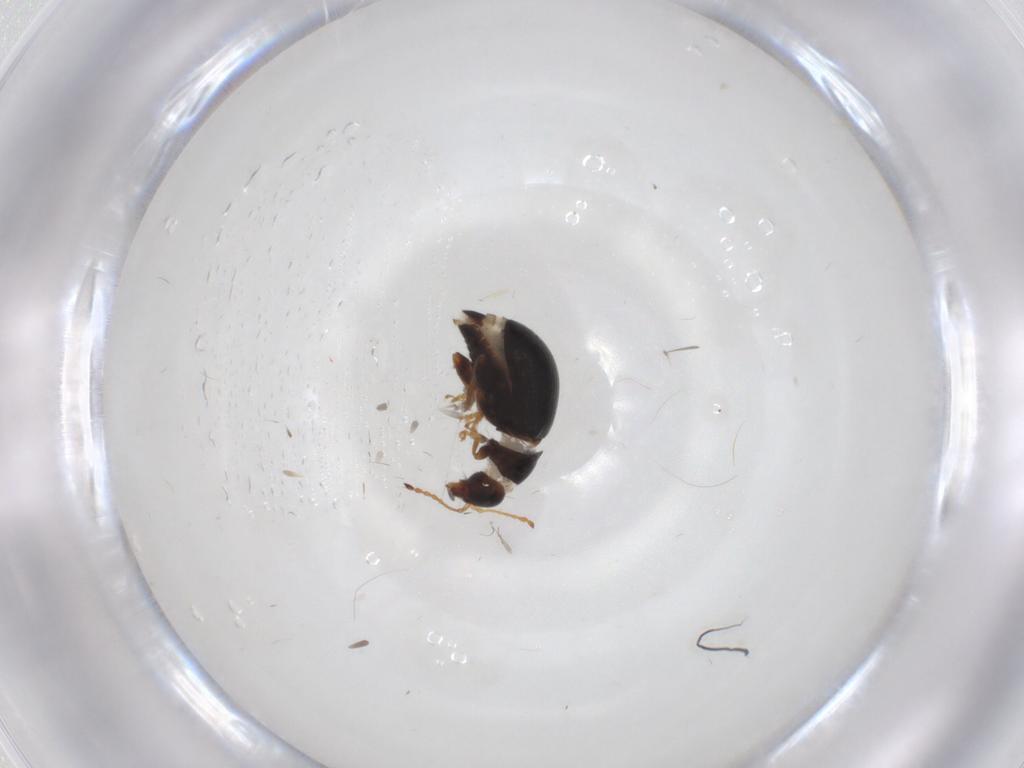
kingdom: Animalia
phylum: Arthropoda
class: Insecta
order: Coleoptera
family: Chrysomelidae
